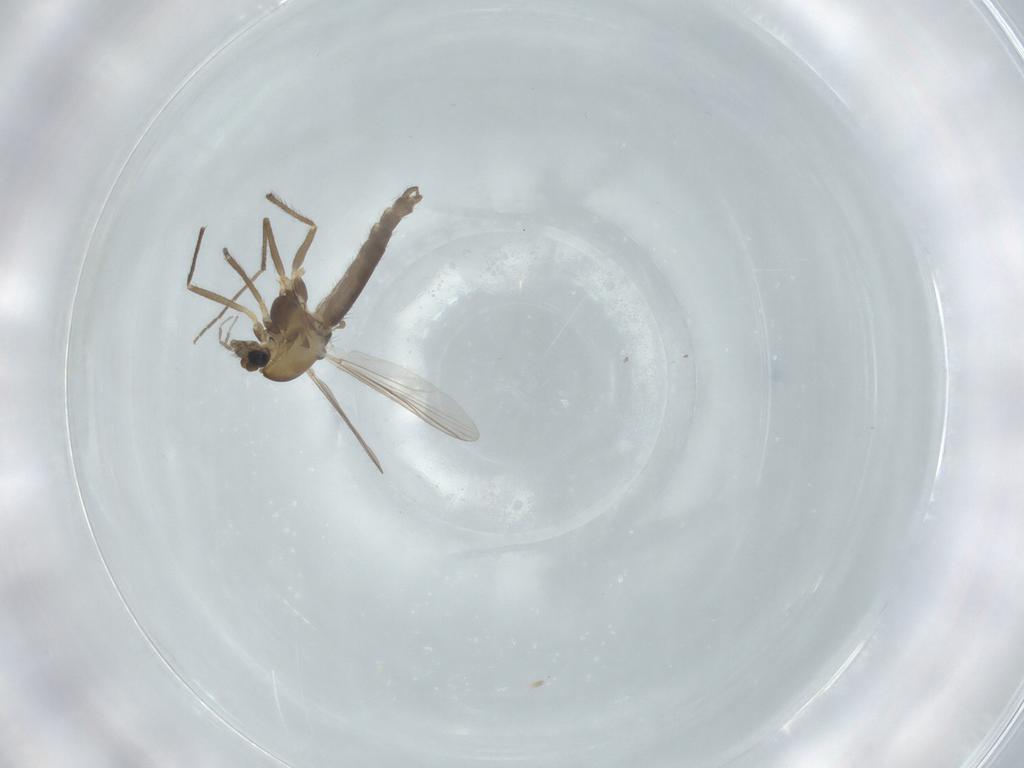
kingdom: Animalia
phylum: Arthropoda
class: Insecta
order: Diptera
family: Chironomidae
